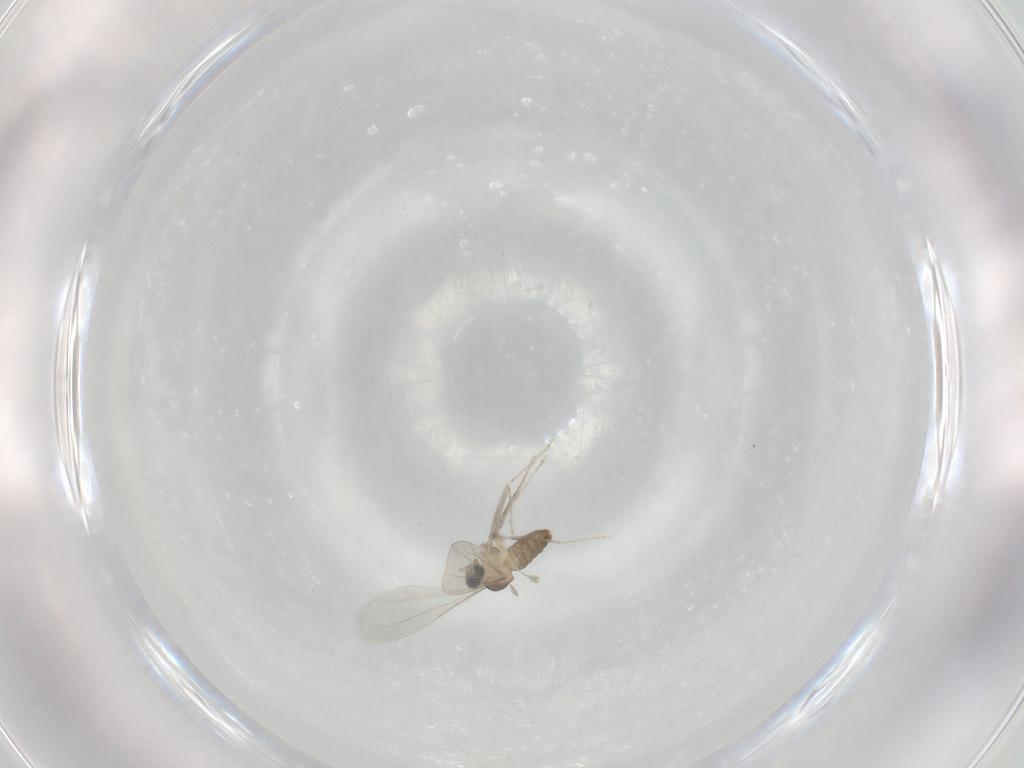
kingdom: Animalia
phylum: Arthropoda
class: Insecta
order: Diptera
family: Cecidomyiidae
